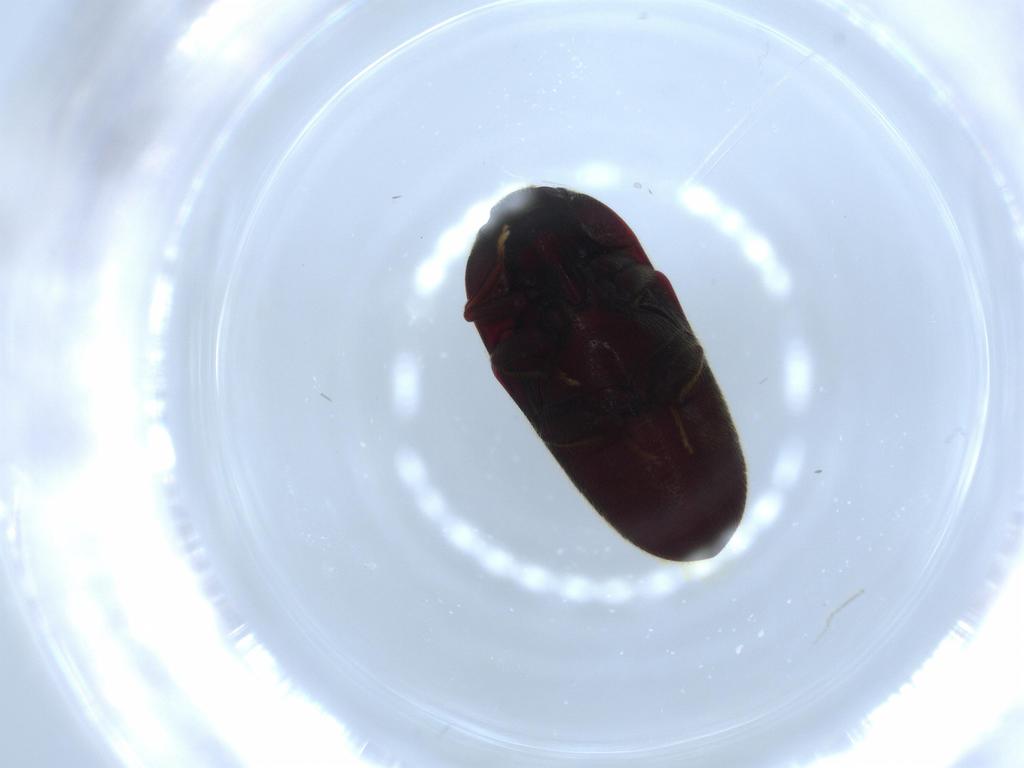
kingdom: Animalia
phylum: Arthropoda
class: Insecta
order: Coleoptera
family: Throscidae
